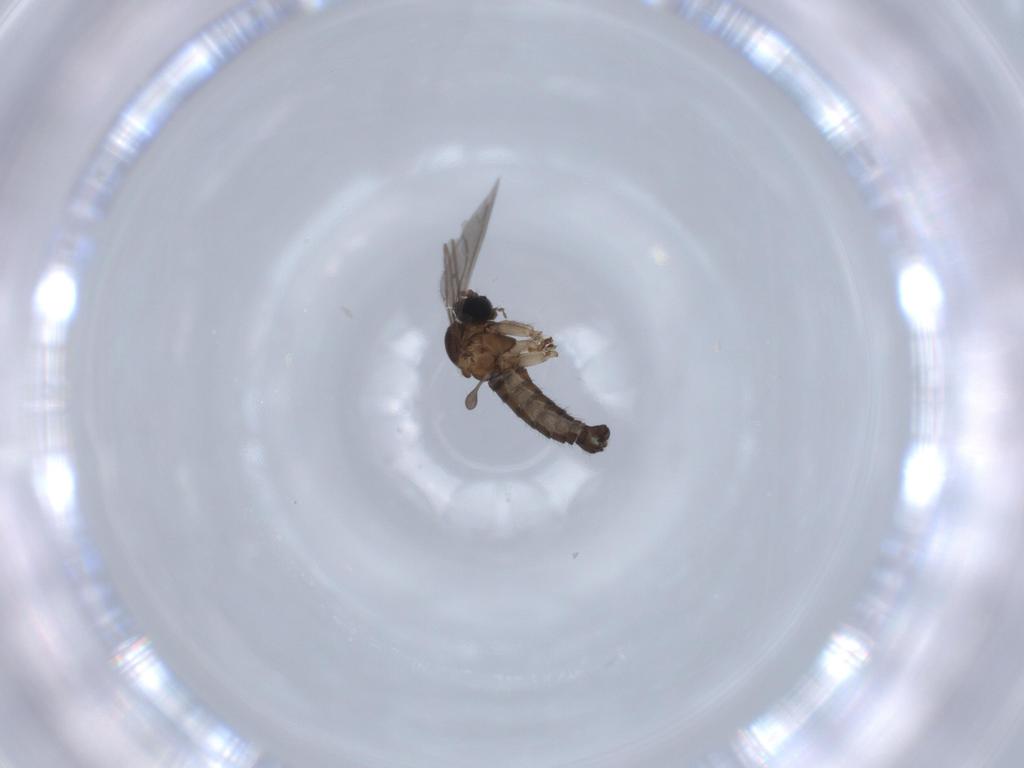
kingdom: Animalia
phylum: Arthropoda
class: Insecta
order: Diptera
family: Sciaridae
